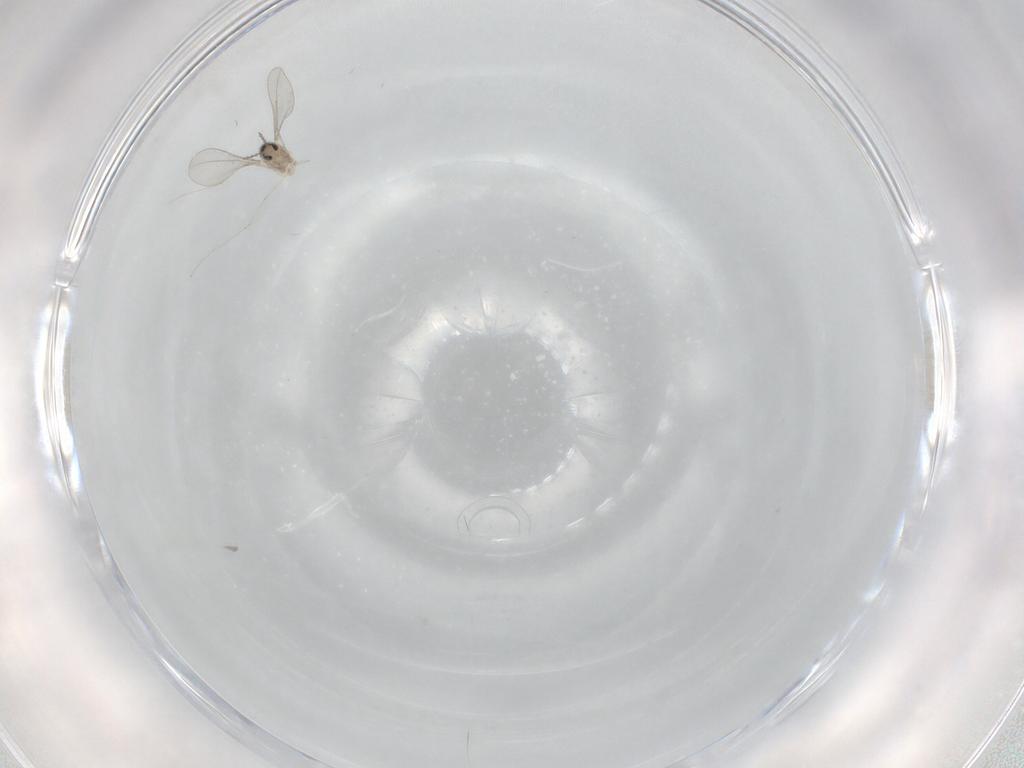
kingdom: Animalia
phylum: Arthropoda
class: Insecta
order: Diptera
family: Cecidomyiidae
